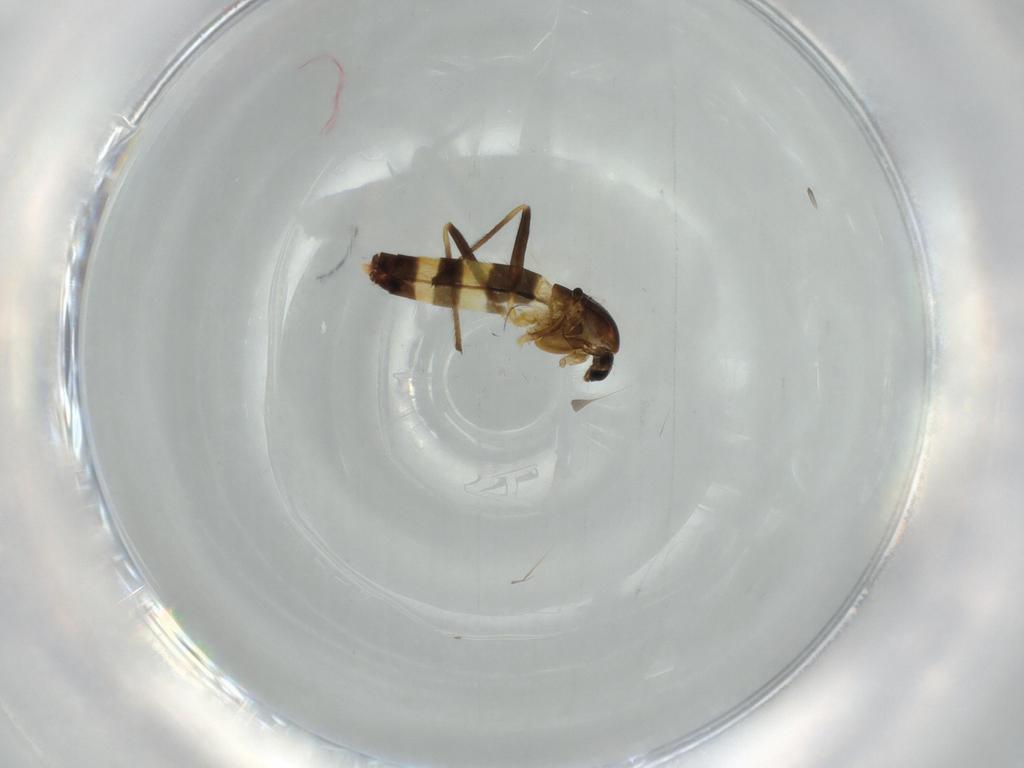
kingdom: Animalia
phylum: Arthropoda
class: Insecta
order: Diptera
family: Chironomidae
